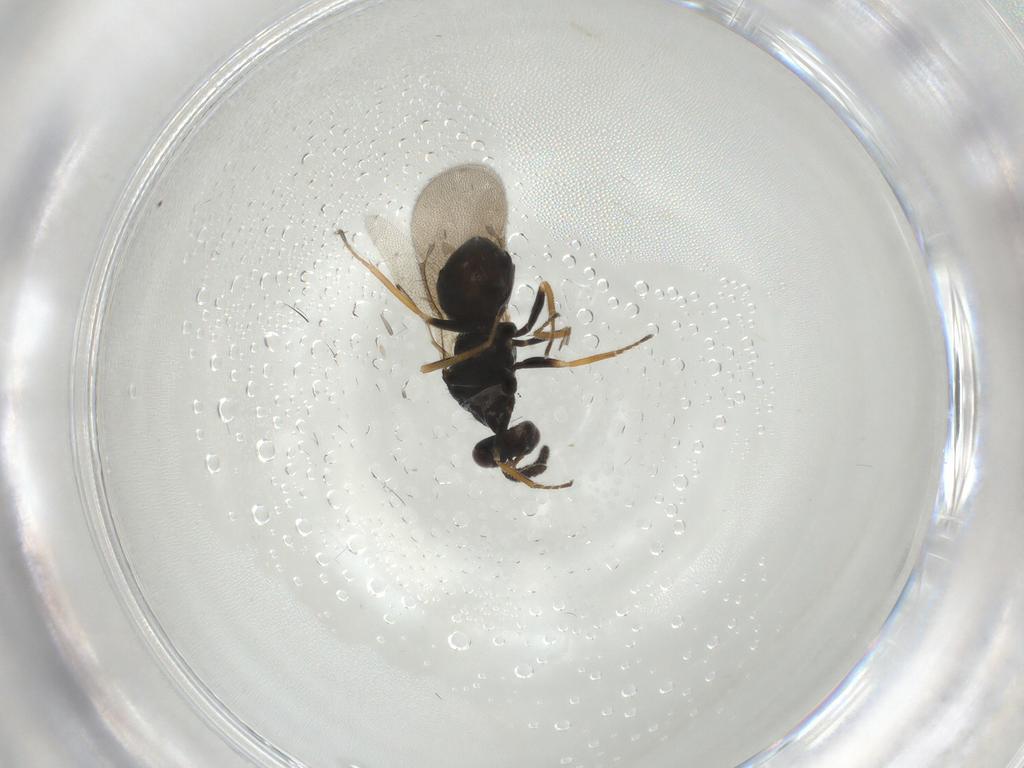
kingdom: Animalia
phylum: Arthropoda
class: Insecta
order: Hymenoptera
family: Eulophidae
